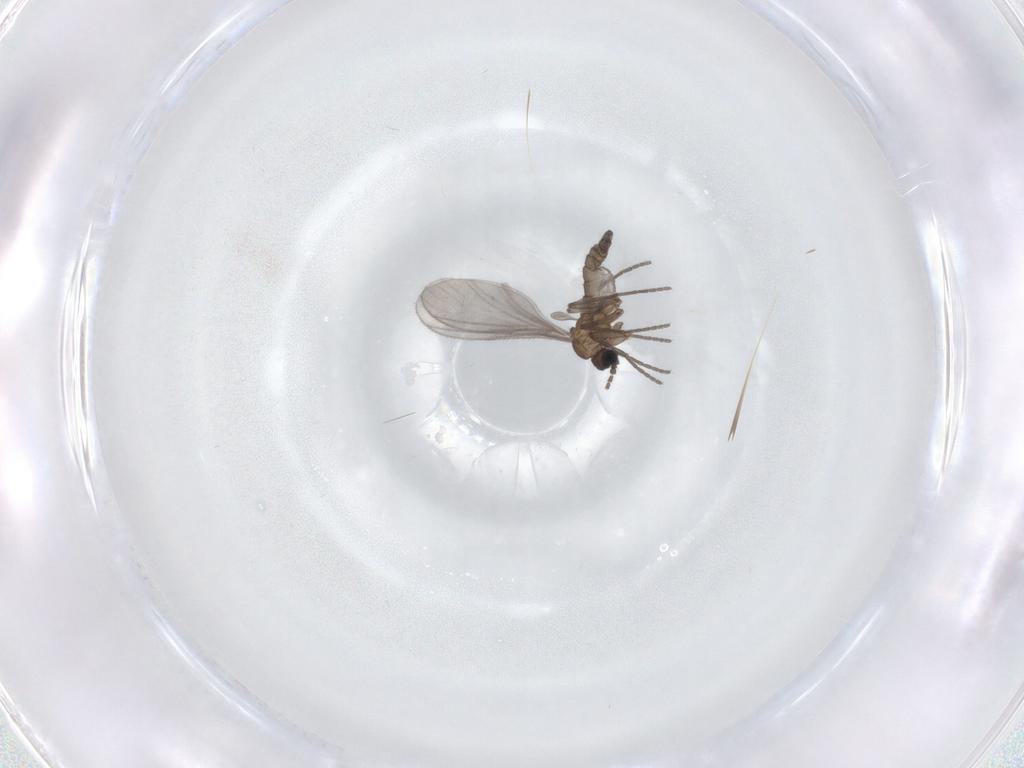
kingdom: Animalia
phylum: Arthropoda
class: Insecta
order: Diptera
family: Sciaridae
